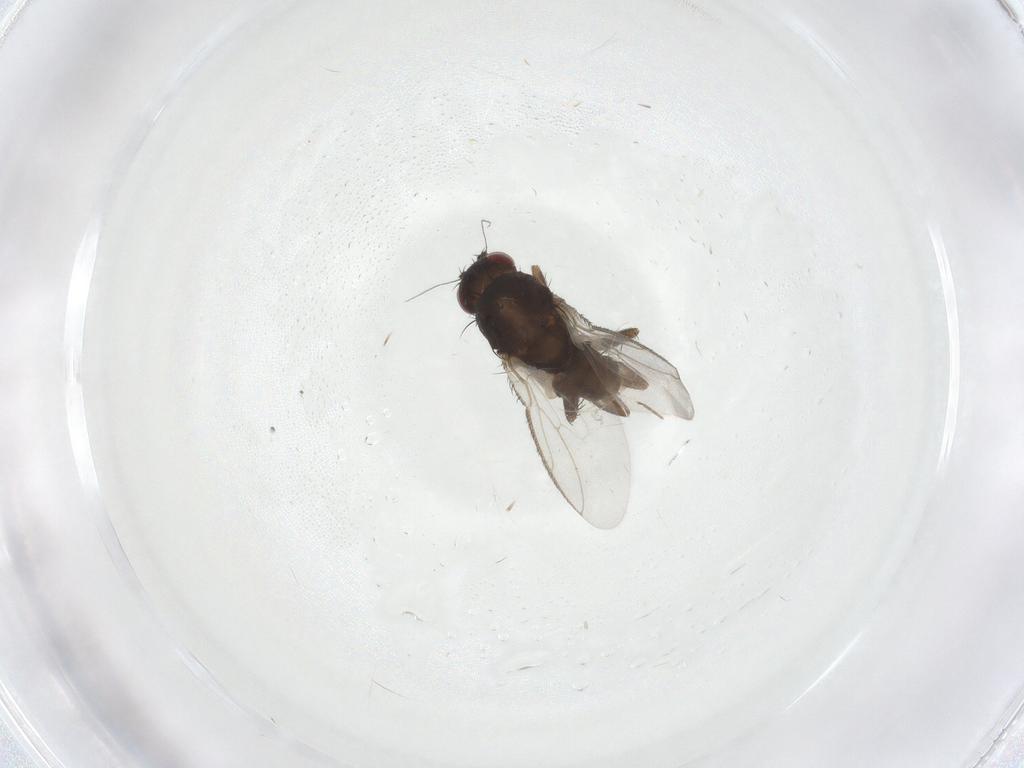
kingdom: Animalia
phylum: Arthropoda
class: Insecta
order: Diptera
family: Sphaeroceridae
